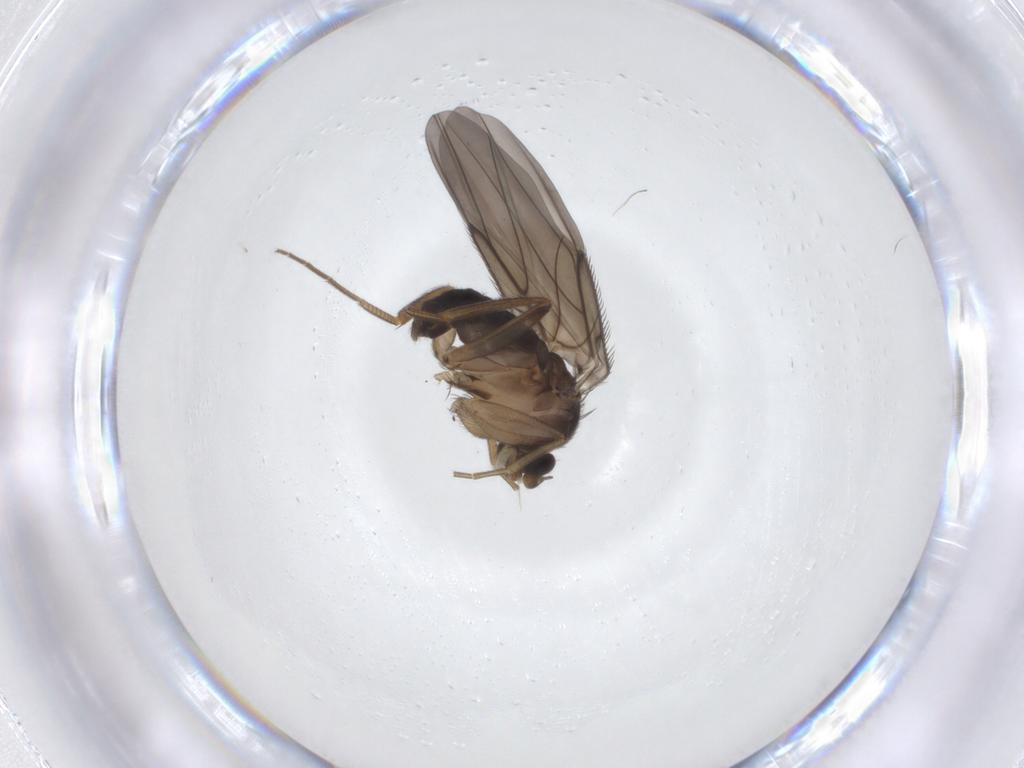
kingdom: Animalia
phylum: Arthropoda
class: Insecta
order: Diptera
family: Phoridae
